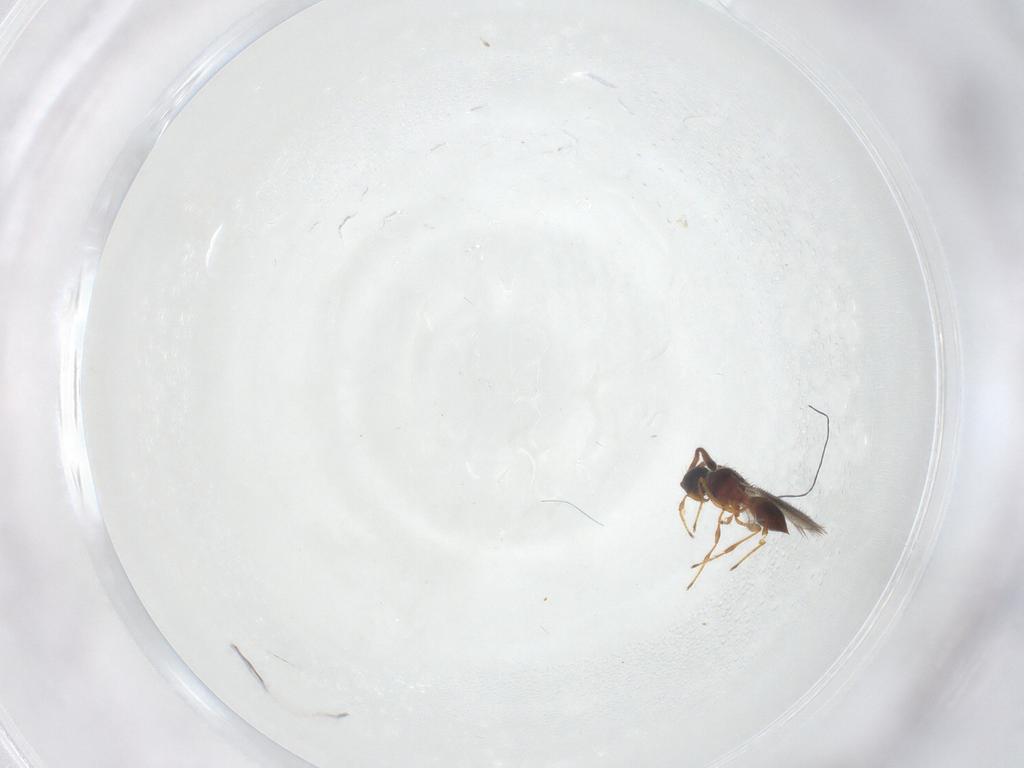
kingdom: Animalia
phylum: Arthropoda
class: Insecta
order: Hymenoptera
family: Diapriidae
